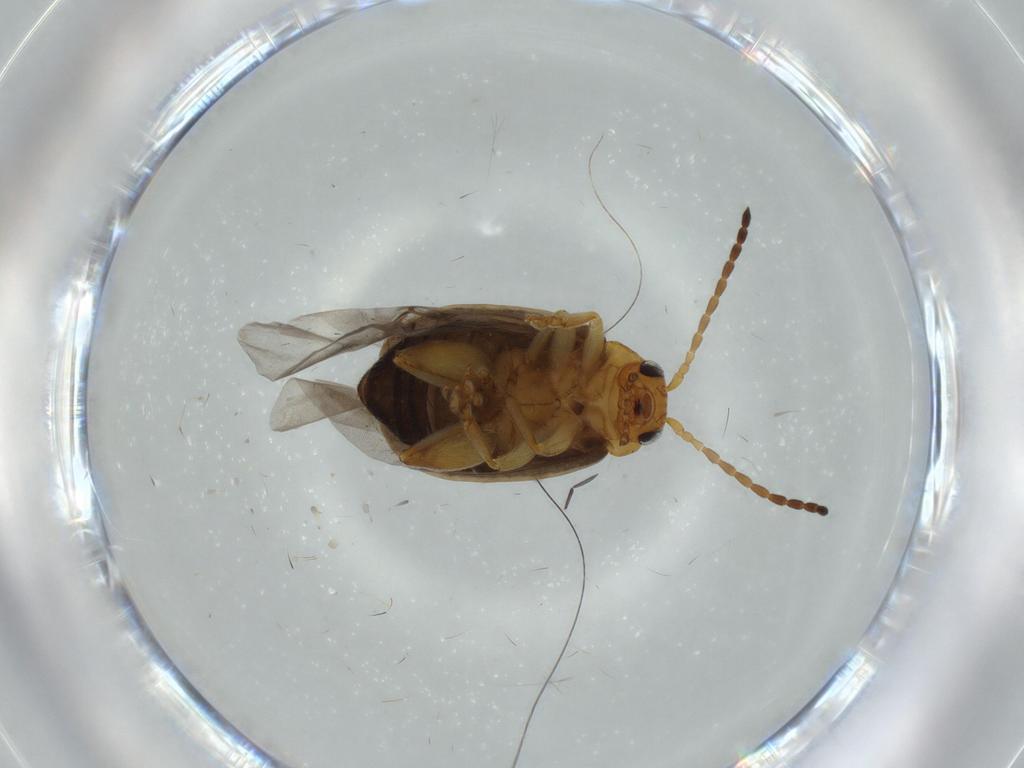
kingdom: Animalia
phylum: Arthropoda
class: Insecta
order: Coleoptera
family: Chrysomelidae
